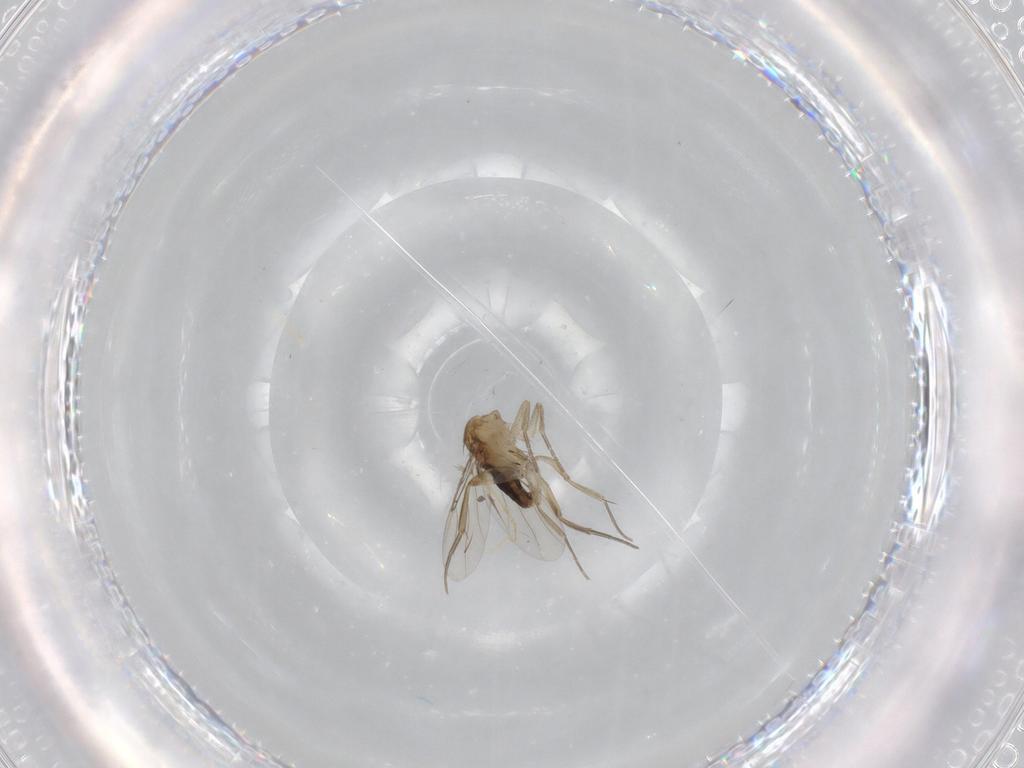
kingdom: Animalia
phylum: Arthropoda
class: Insecta
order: Diptera
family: Phoridae
